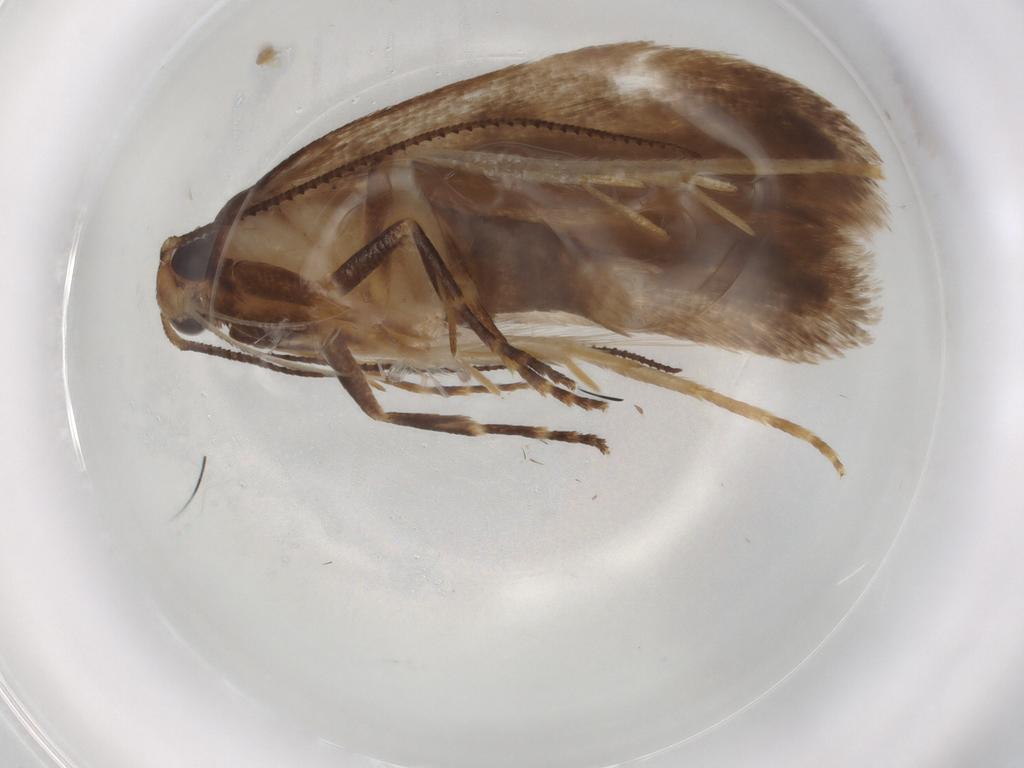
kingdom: Animalia
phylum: Arthropoda
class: Insecta
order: Lepidoptera
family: Gelechiidae
